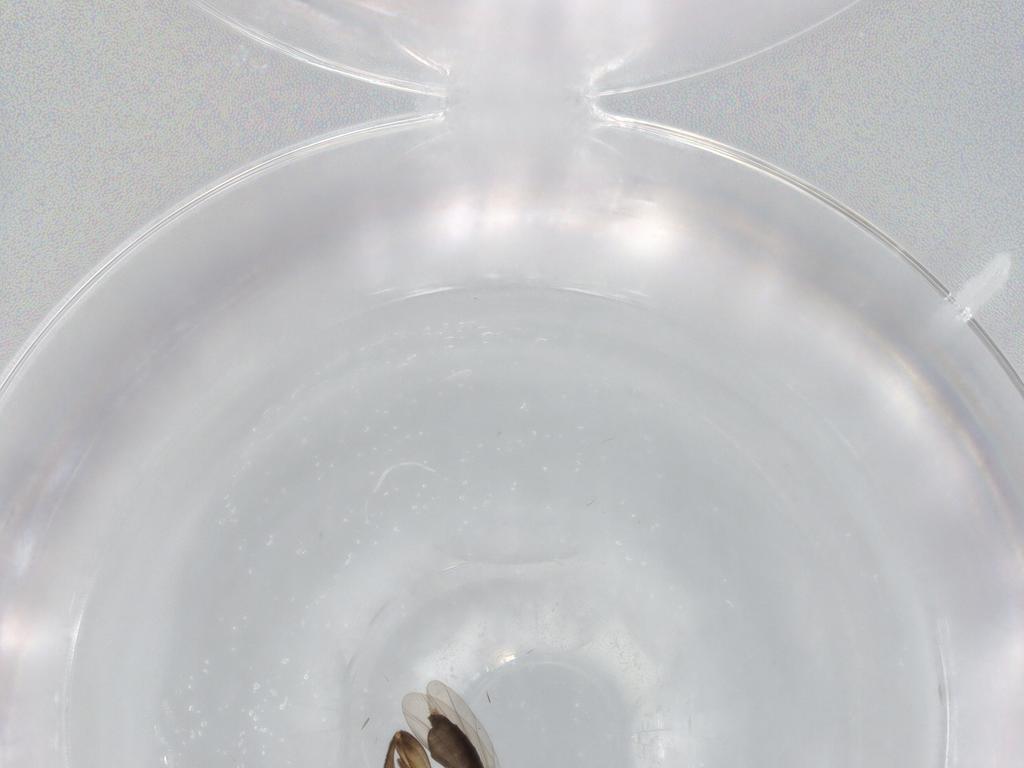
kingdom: Animalia
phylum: Arthropoda
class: Insecta
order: Diptera
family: Phoridae
